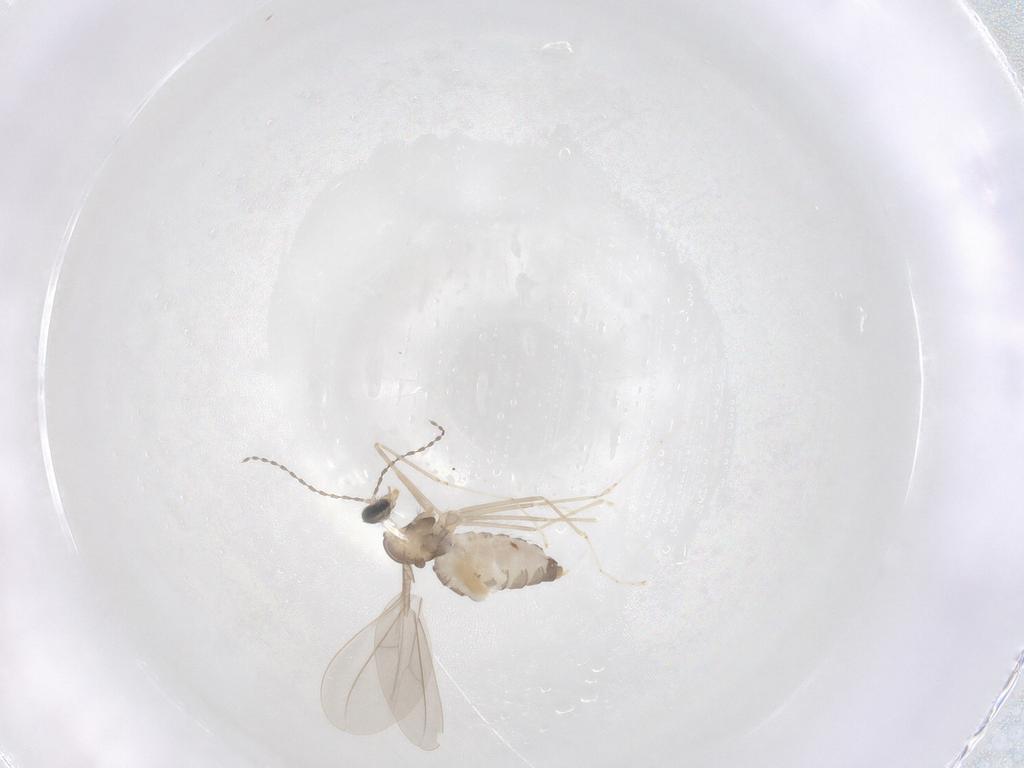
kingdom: Animalia
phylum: Arthropoda
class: Insecta
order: Diptera
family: Cecidomyiidae
